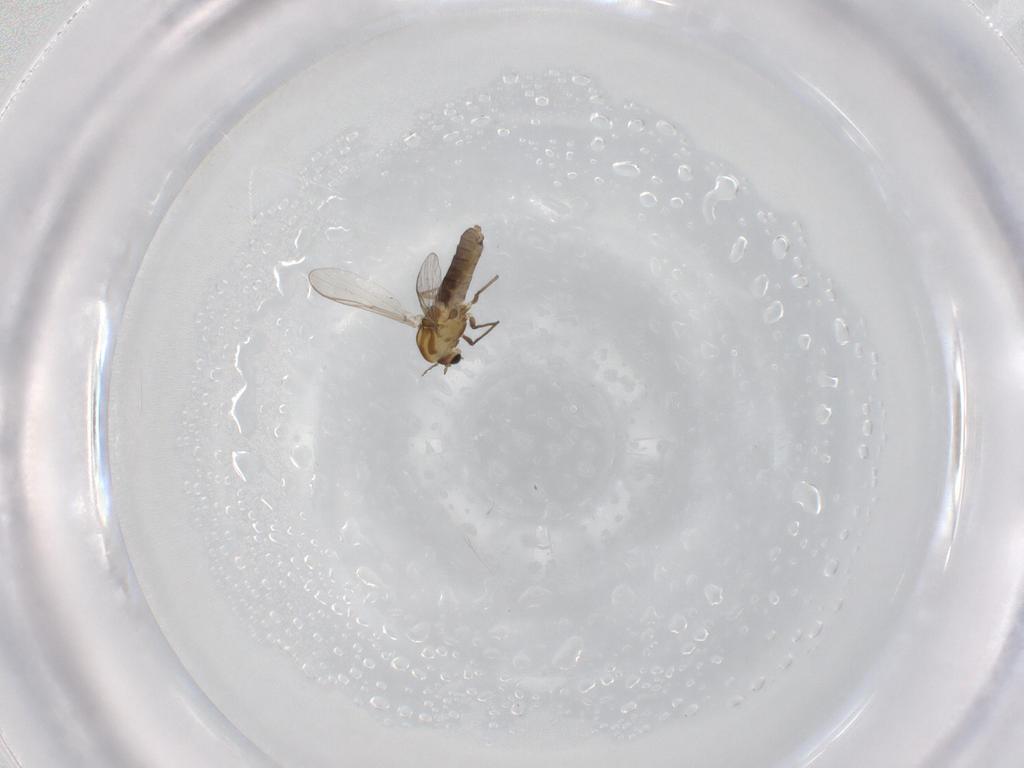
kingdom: Animalia
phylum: Arthropoda
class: Insecta
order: Diptera
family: Chironomidae
